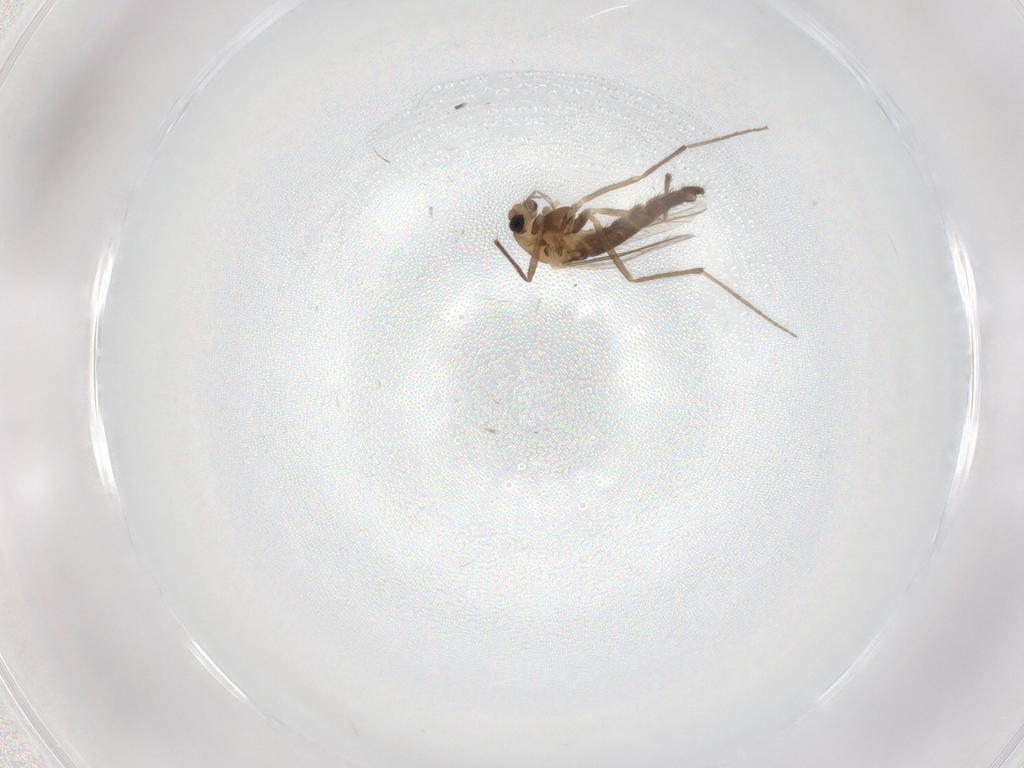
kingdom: Animalia
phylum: Arthropoda
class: Insecta
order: Diptera
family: Chironomidae
